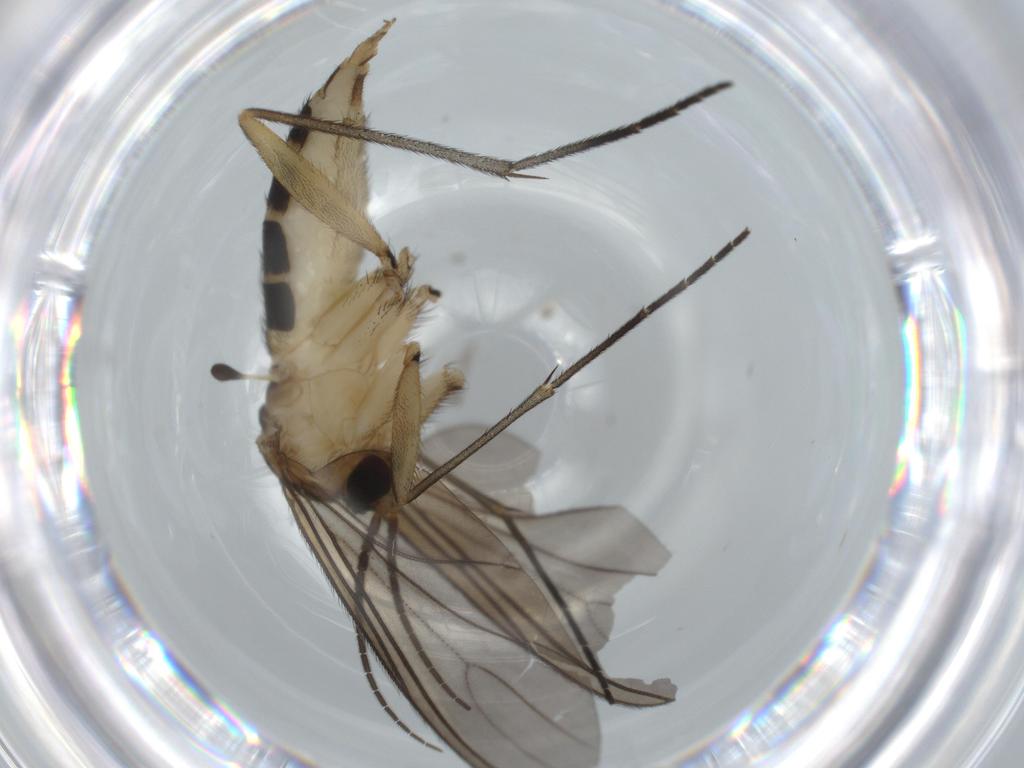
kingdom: Animalia
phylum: Arthropoda
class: Insecta
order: Diptera
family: Sciaridae
